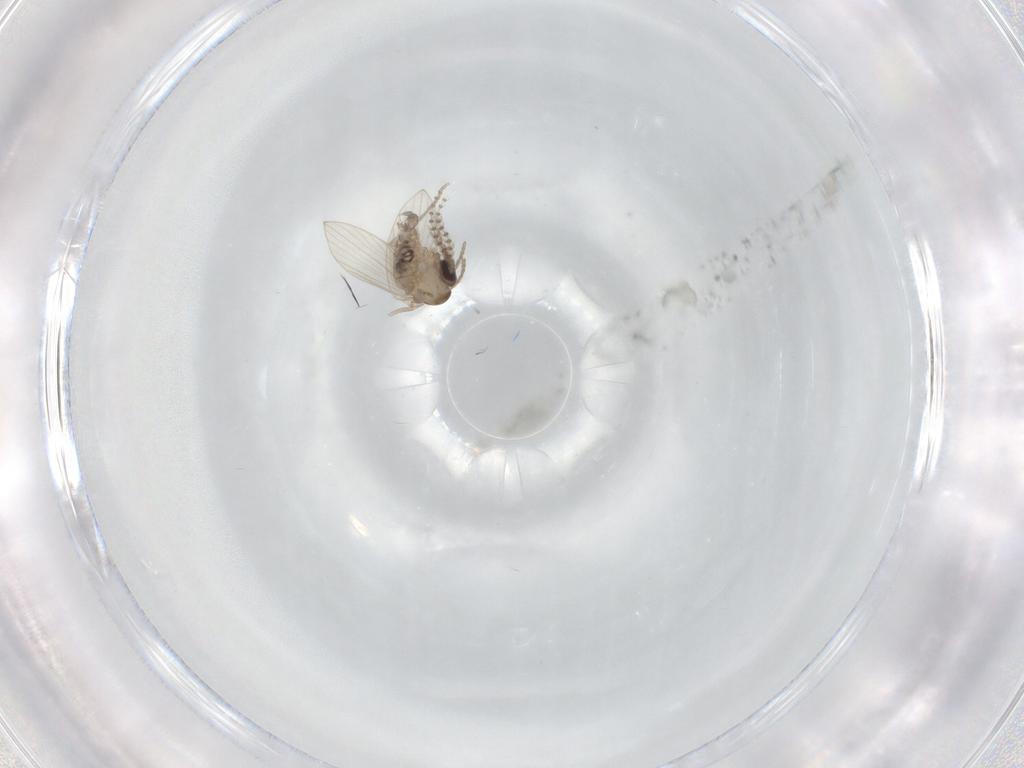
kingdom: Animalia
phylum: Arthropoda
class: Insecta
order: Diptera
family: Psychodidae
